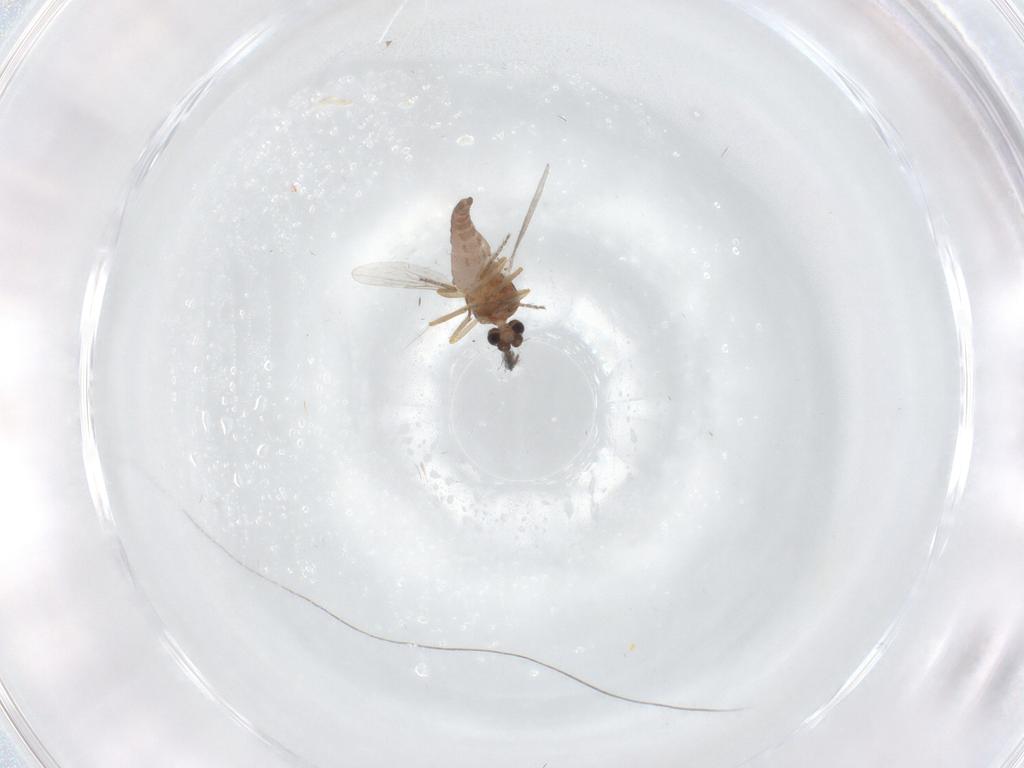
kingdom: Animalia
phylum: Arthropoda
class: Insecta
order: Diptera
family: Ceratopogonidae
